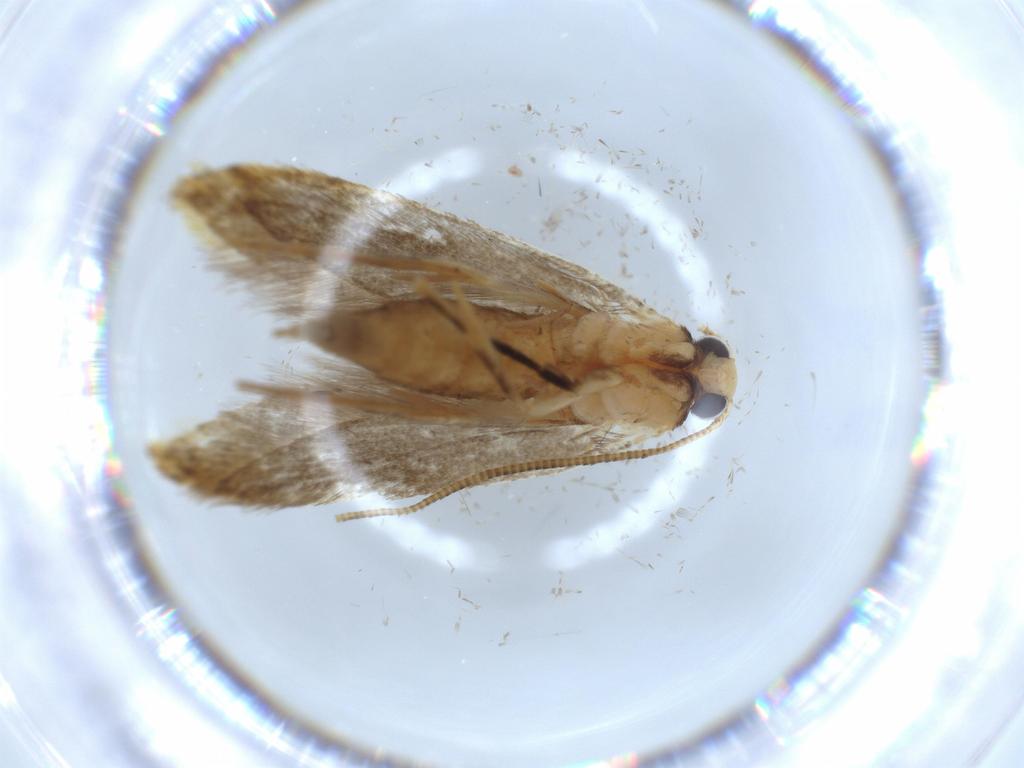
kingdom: Animalia
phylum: Arthropoda
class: Insecta
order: Lepidoptera
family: Tineidae
